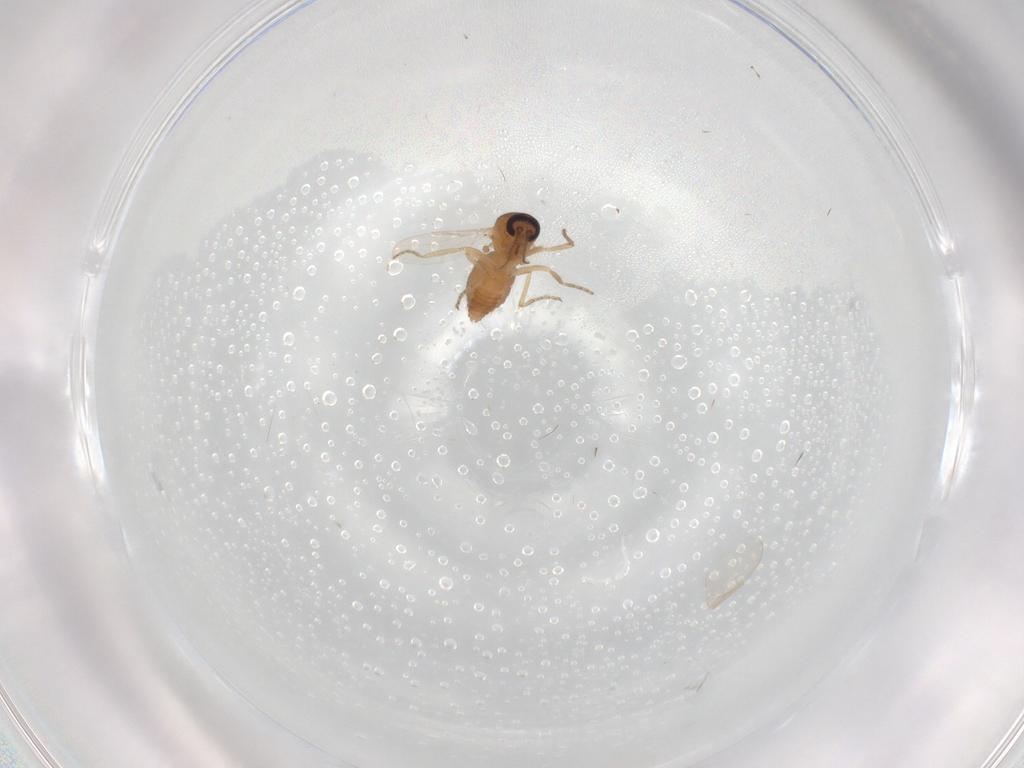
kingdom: Animalia
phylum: Arthropoda
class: Insecta
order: Diptera
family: Ceratopogonidae
